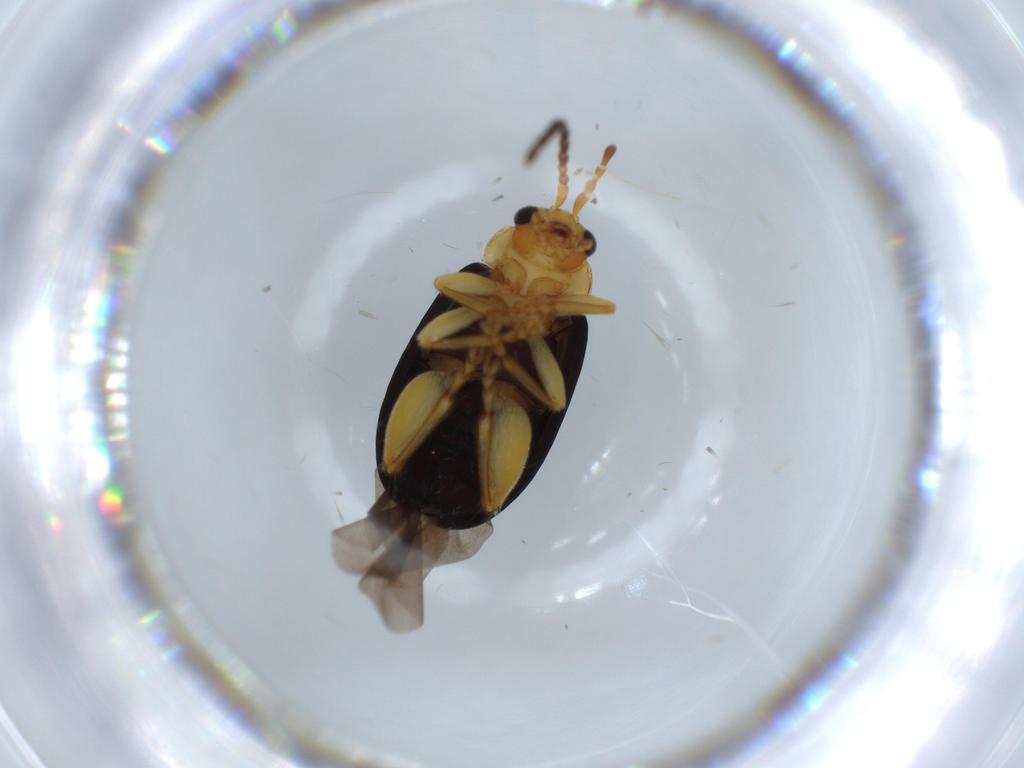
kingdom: Animalia
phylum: Arthropoda
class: Insecta
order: Coleoptera
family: Chrysomelidae
